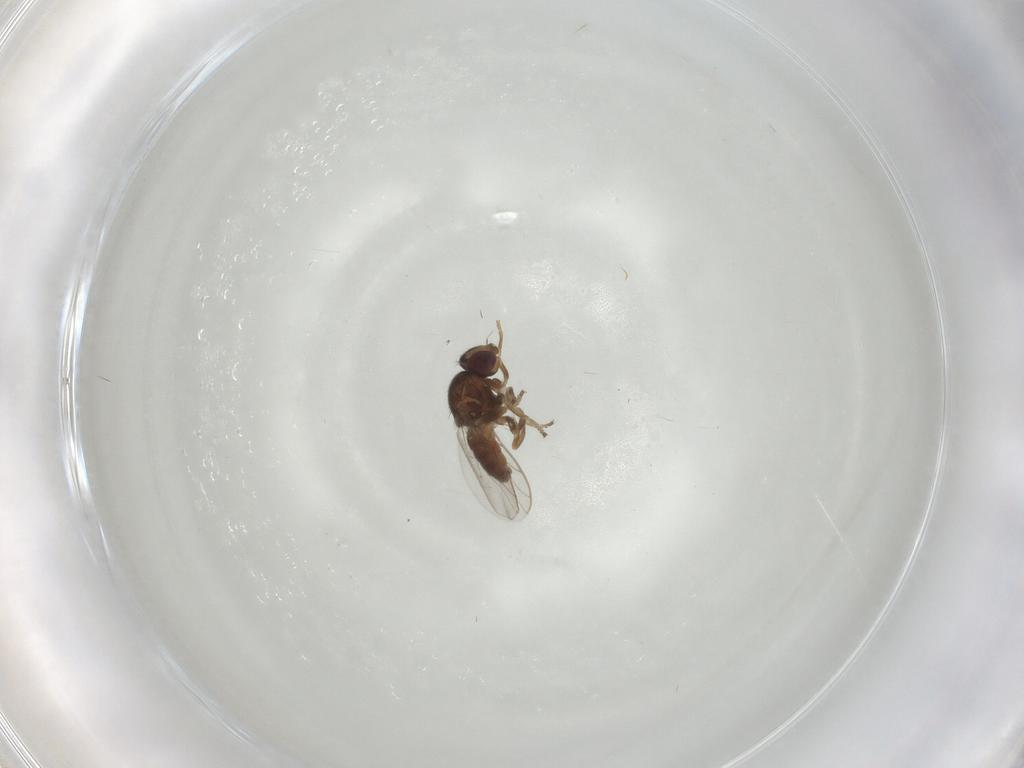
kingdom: Animalia
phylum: Arthropoda
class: Insecta
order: Diptera
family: Chloropidae
